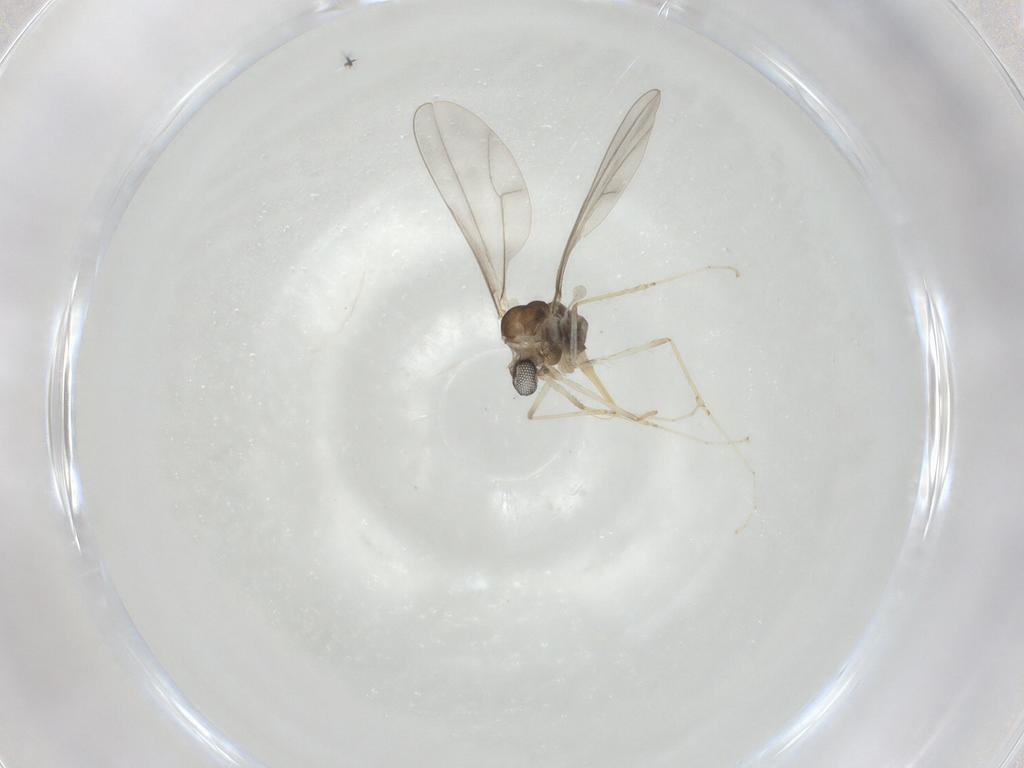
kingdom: Animalia
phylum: Arthropoda
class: Insecta
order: Diptera
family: Cecidomyiidae
